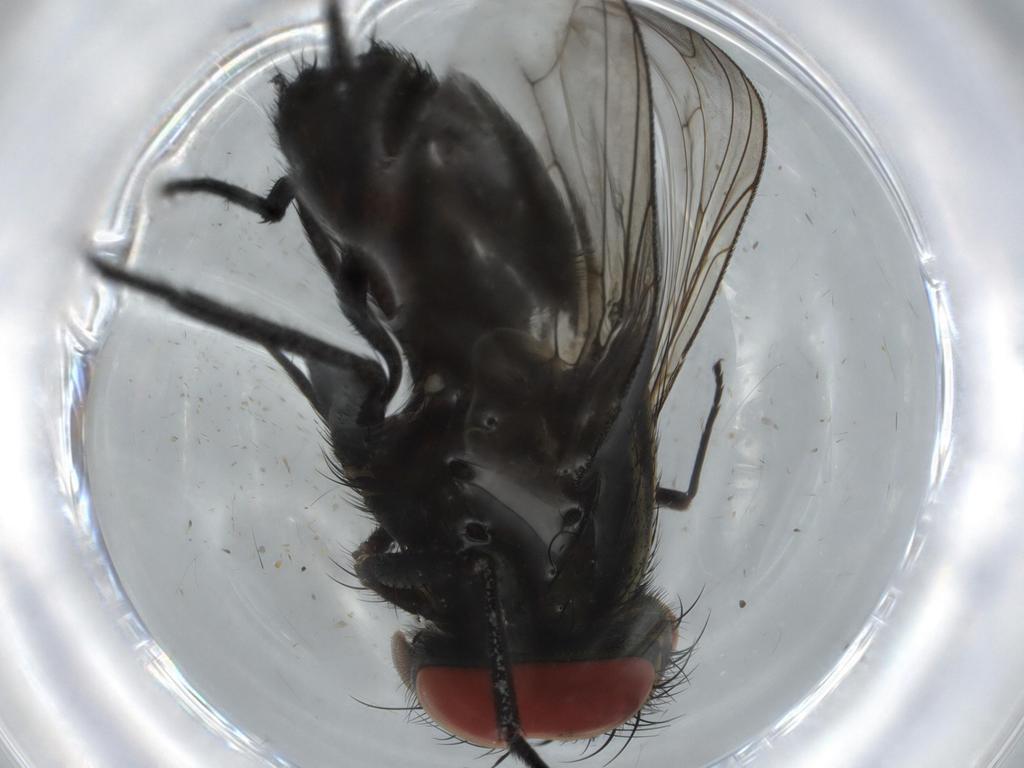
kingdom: Animalia
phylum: Arthropoda
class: Insecta
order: Diptera
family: Micropezidae
